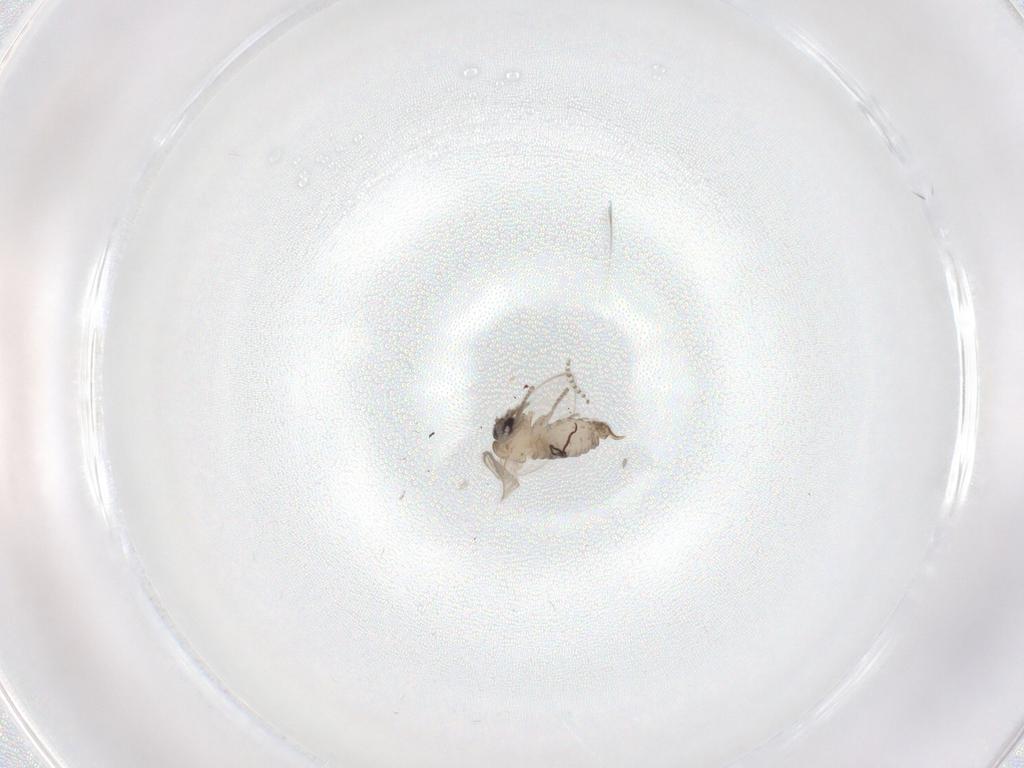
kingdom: Animalia
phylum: Arthropoda
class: Insecta
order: Diptera
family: Psychodidae
